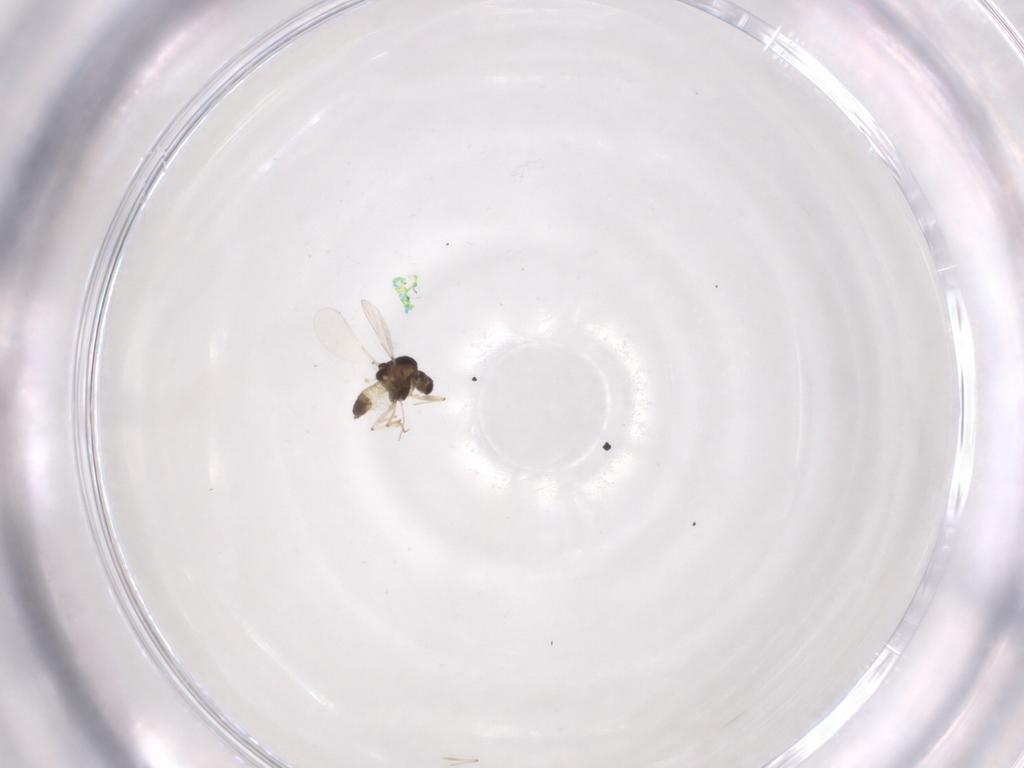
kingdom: Animalia
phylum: Arthropoda
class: Insecta
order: Diptera
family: Chironomidae
